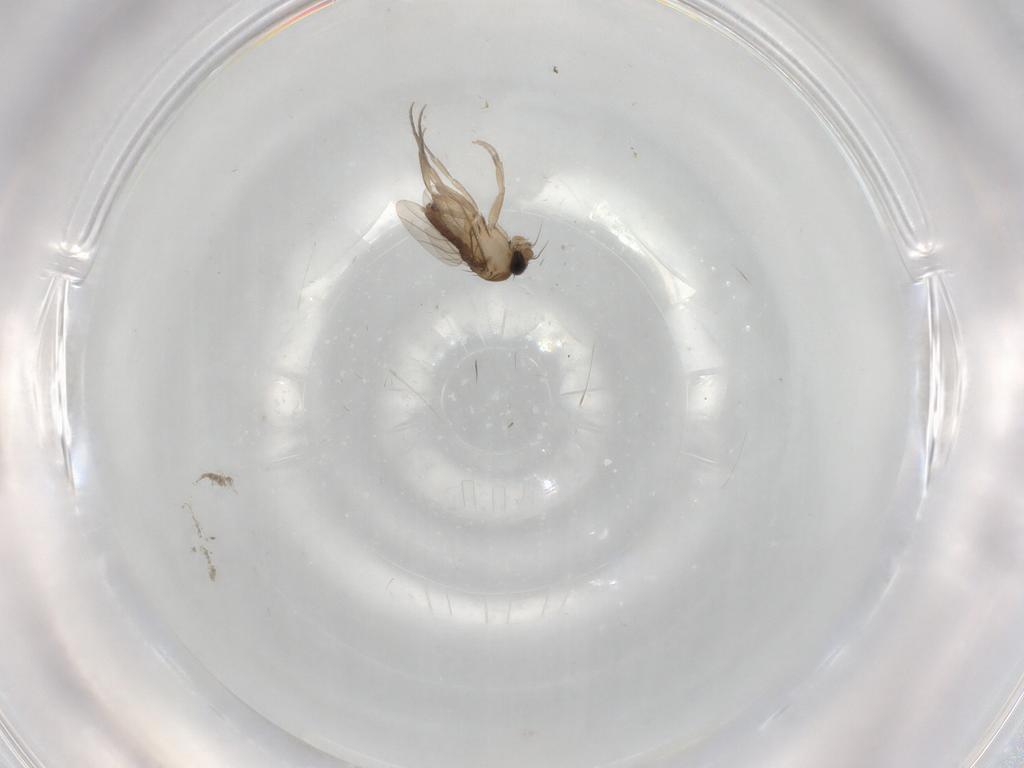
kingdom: Animalia
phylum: Arthropoda
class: Insecta
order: Diptera
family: Phoridae
